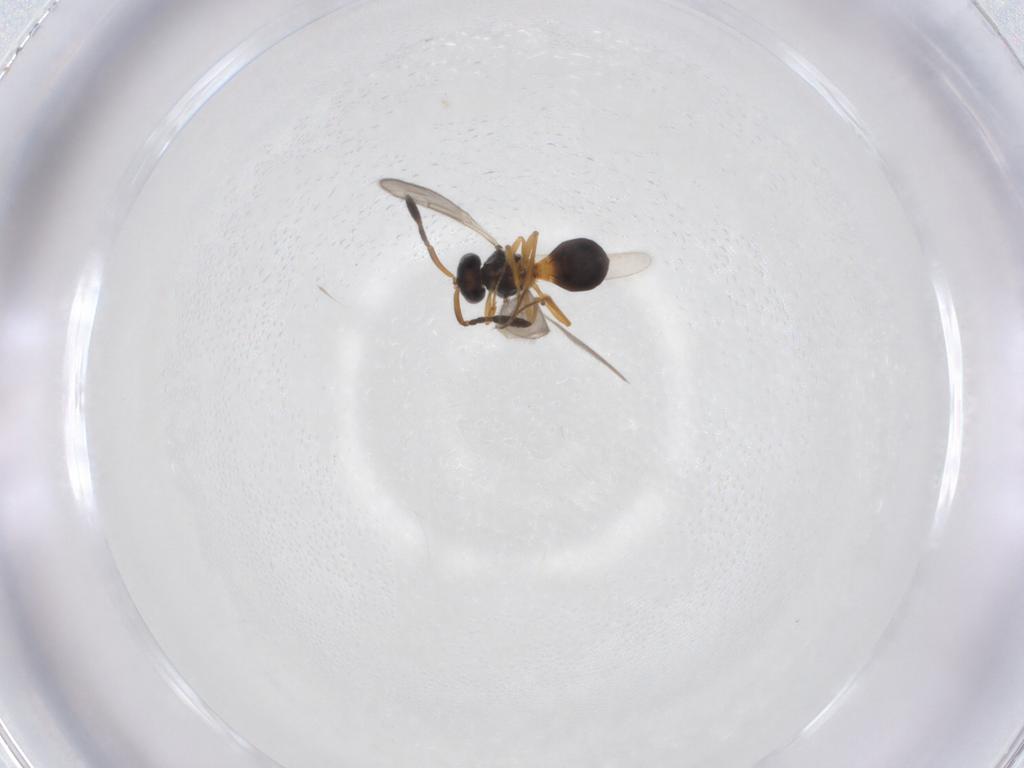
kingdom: Animalia
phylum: Arthropoda
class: Insecta
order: Hymenoptera
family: Scelionidae
